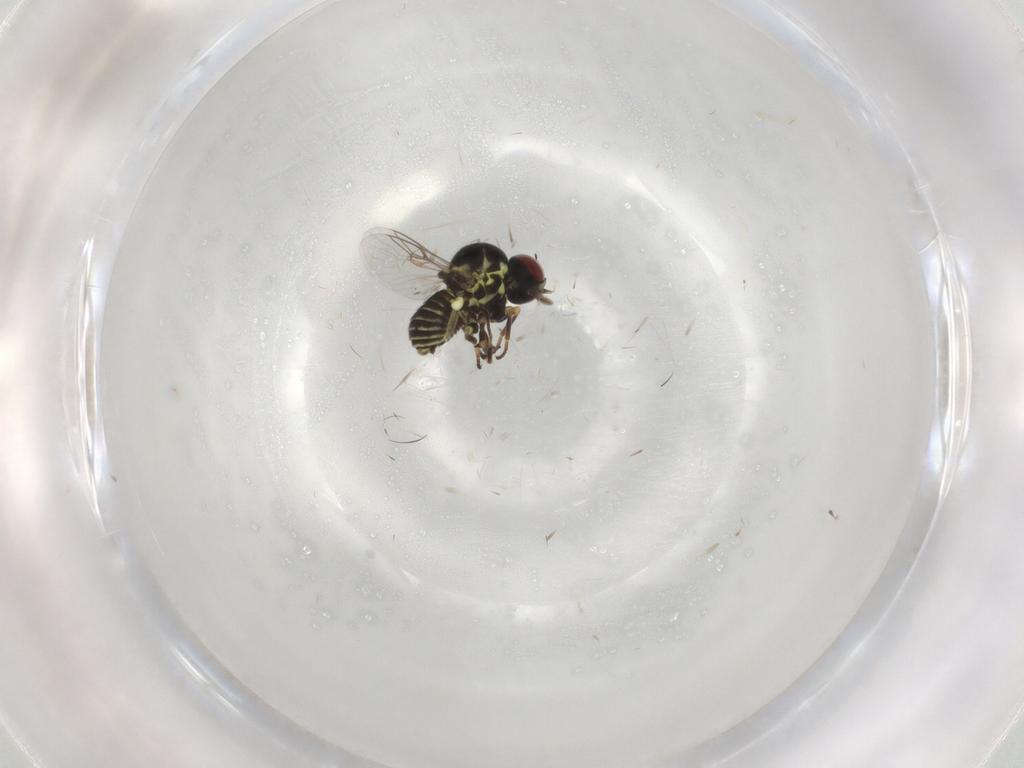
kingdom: Animalia
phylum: Arthropoda
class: Insecta
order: Diptera
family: Mythicomyiidae
